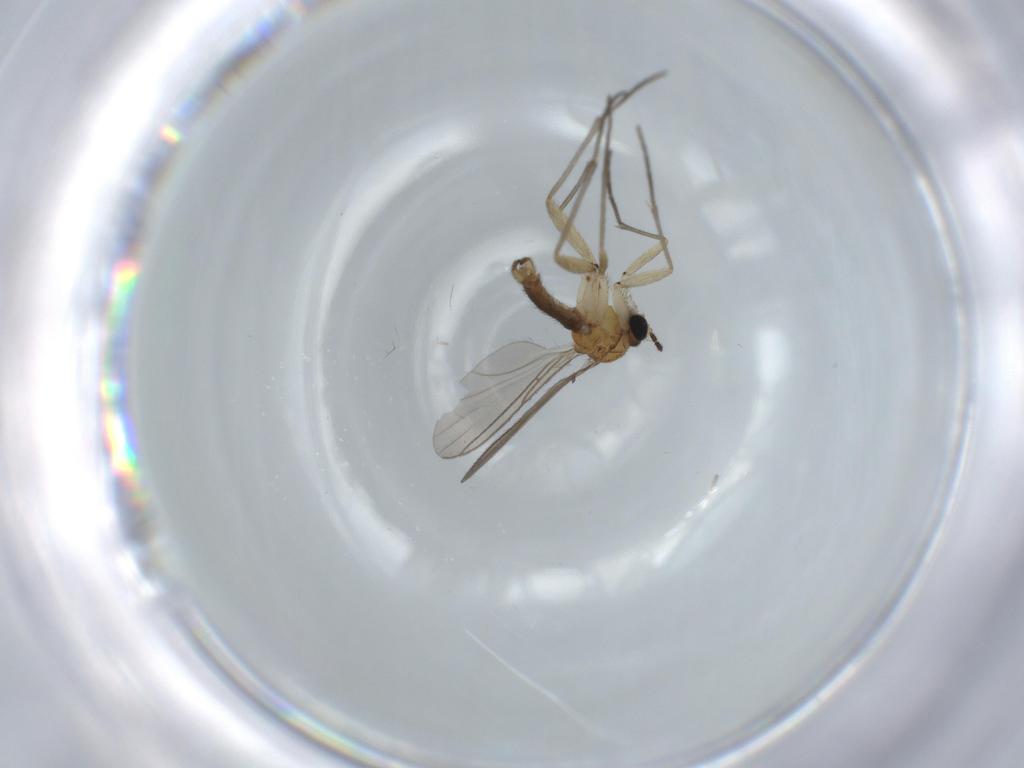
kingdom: Animalia
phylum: Arthropoda
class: Insecta
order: Diptera
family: Sciaridae
